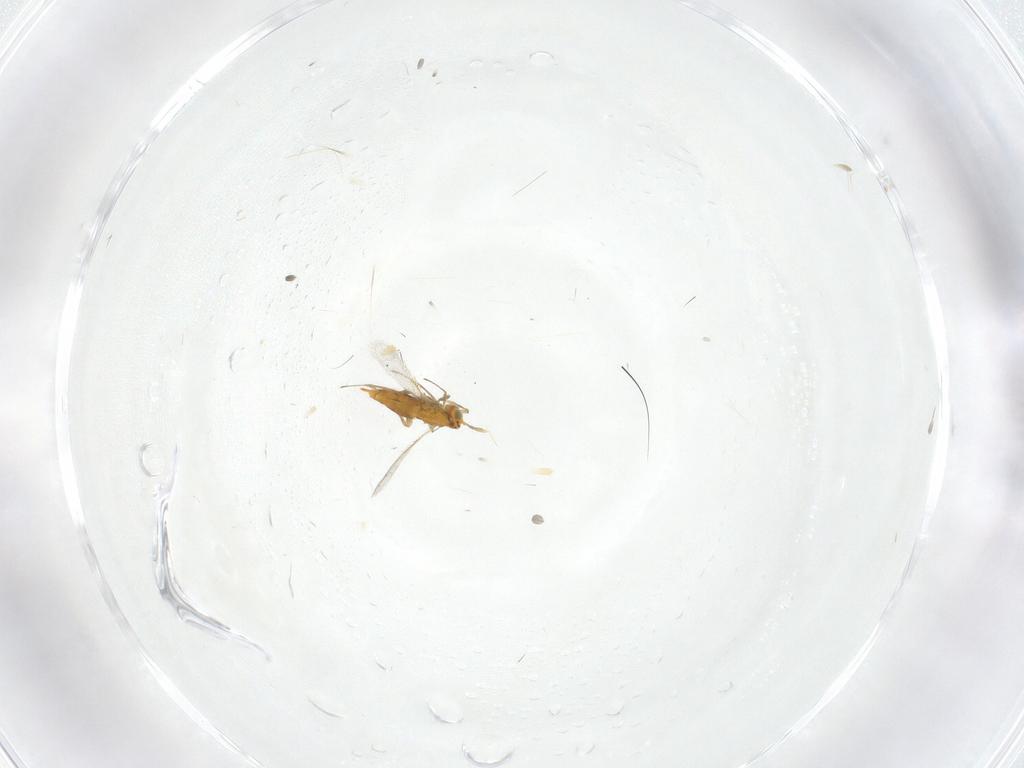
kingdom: Animalia
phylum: Arthropoda
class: Insecta
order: Hymenoptera
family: Aphelinidae
